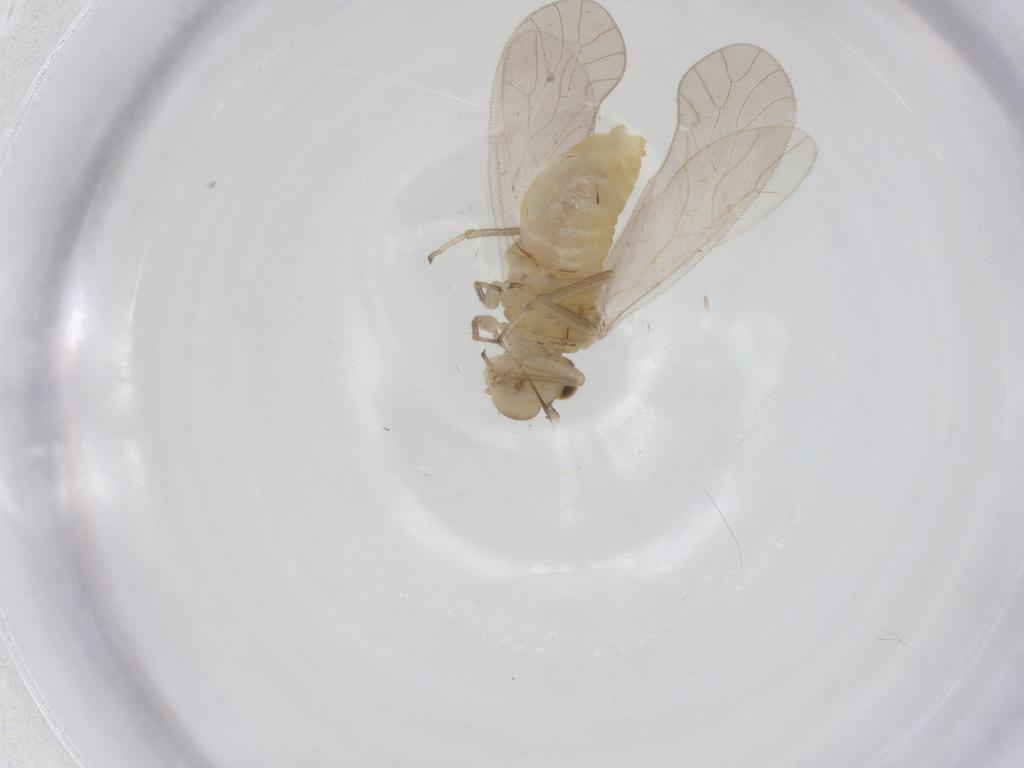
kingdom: Animalia
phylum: Arthropoda
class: Insecta
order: Psocodea
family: Caeciliusidae
